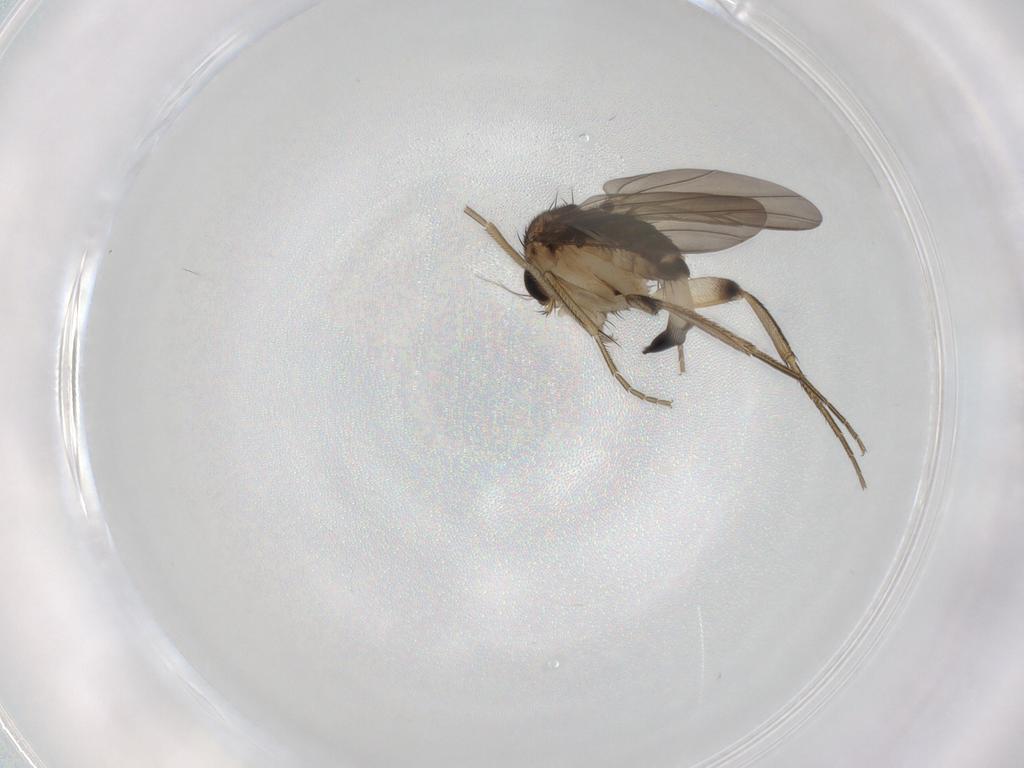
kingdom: Animalia
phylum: Arthropoda
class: Insecta
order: Diptera
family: Phoridae
